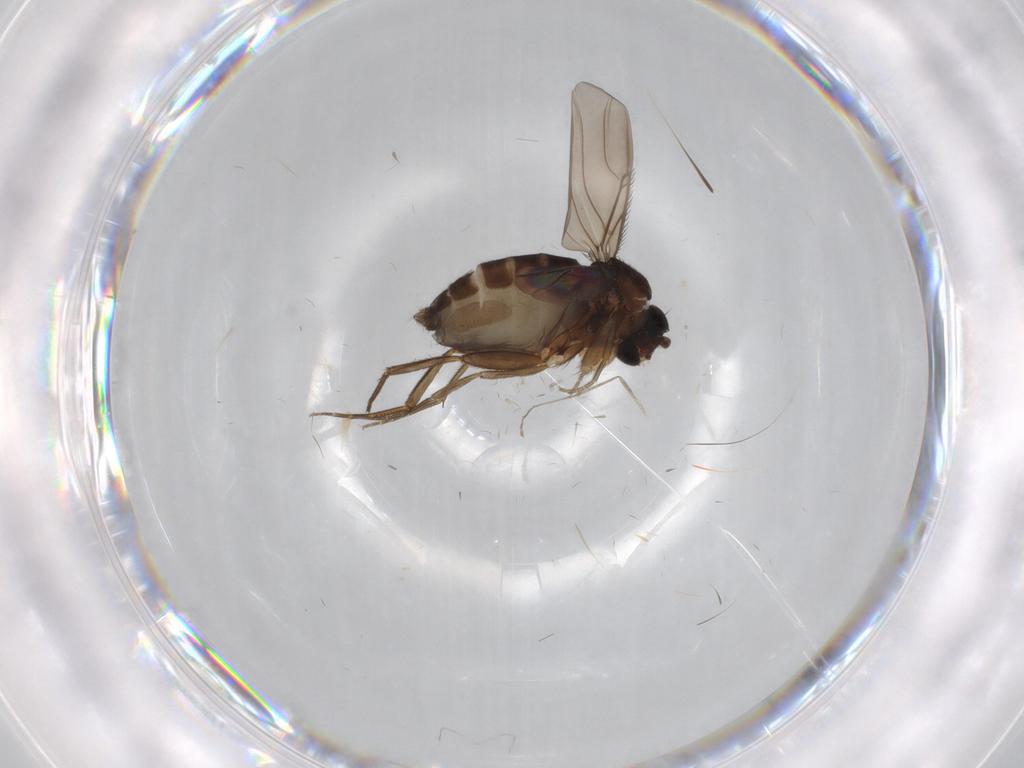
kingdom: Animalia
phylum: Arthropoda
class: Insecta
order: Diptera
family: Phoridae
